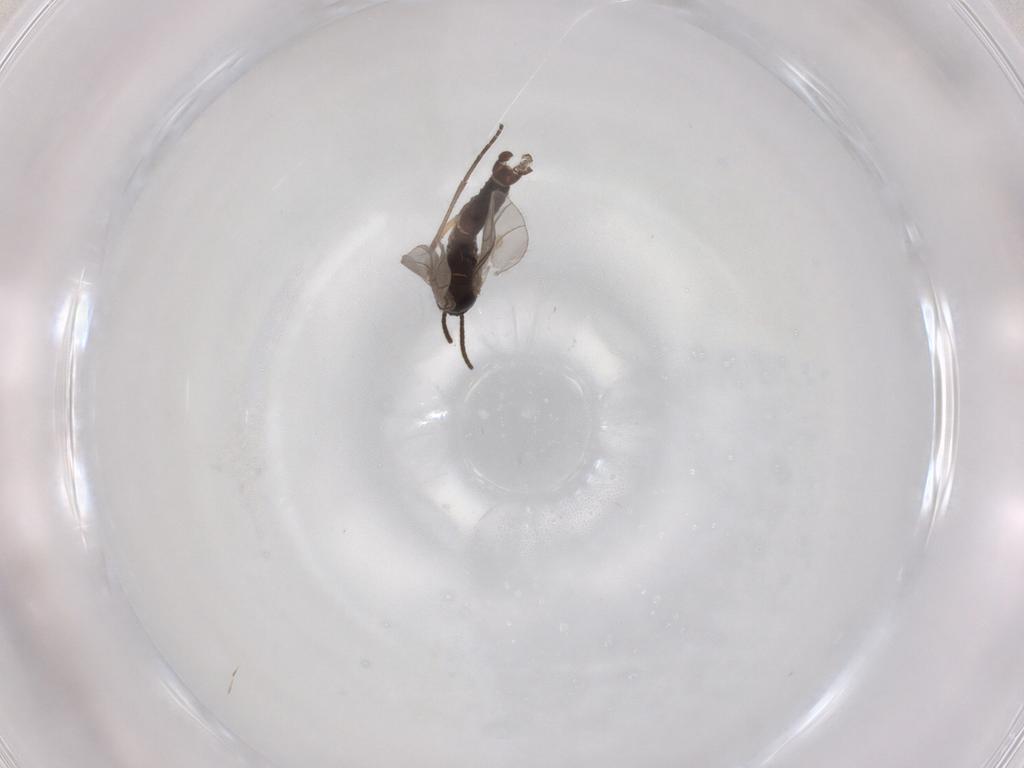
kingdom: Animalia
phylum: Arthropoda
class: Insecta
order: Diptera
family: Sciaridae
